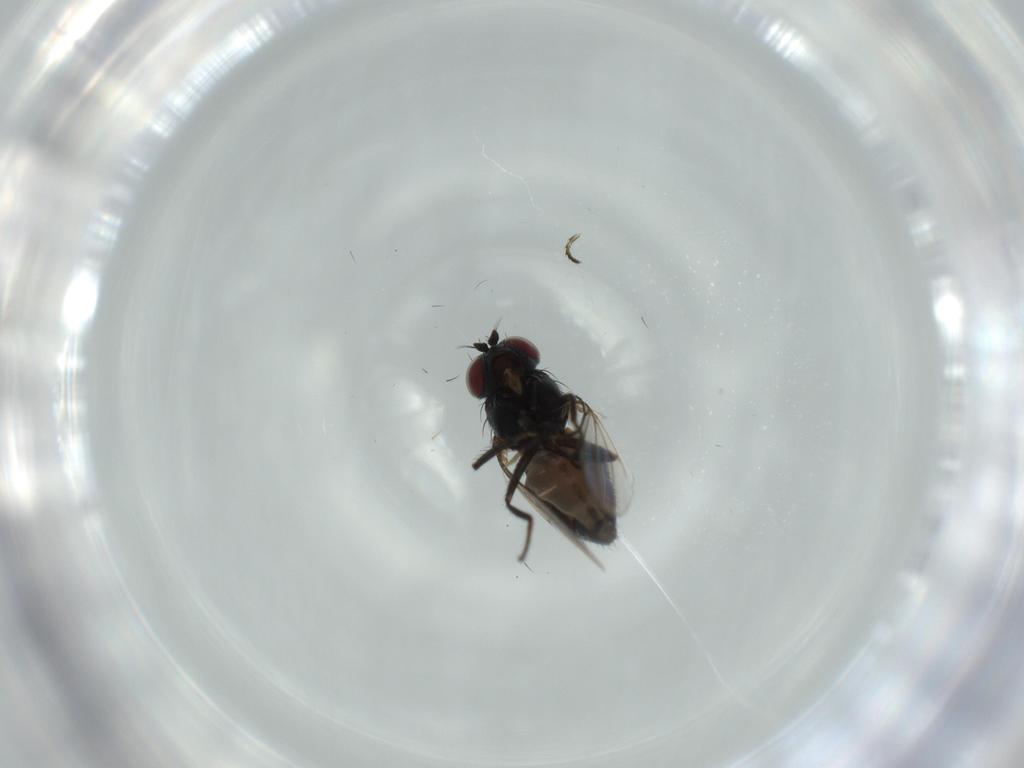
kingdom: Animalia
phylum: Arthropoda
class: Insecta
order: Diptera
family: Ephydridae
